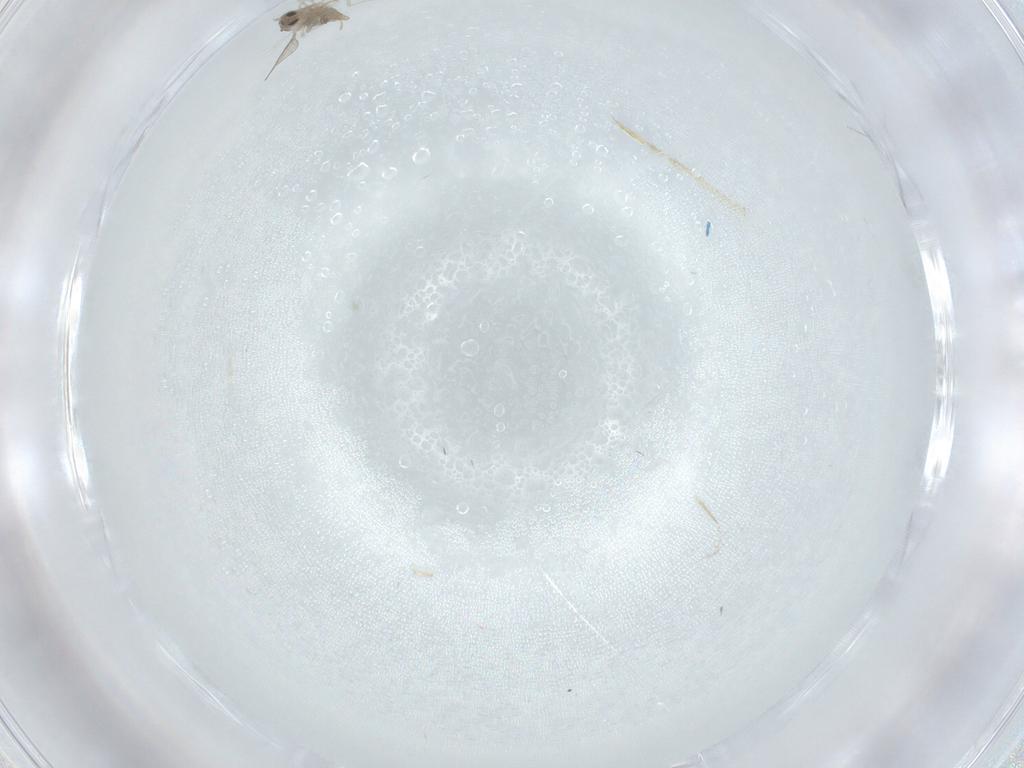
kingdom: Animalia
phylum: Arthropoda
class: Insecta
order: Diptera
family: Cecidomyiidae
